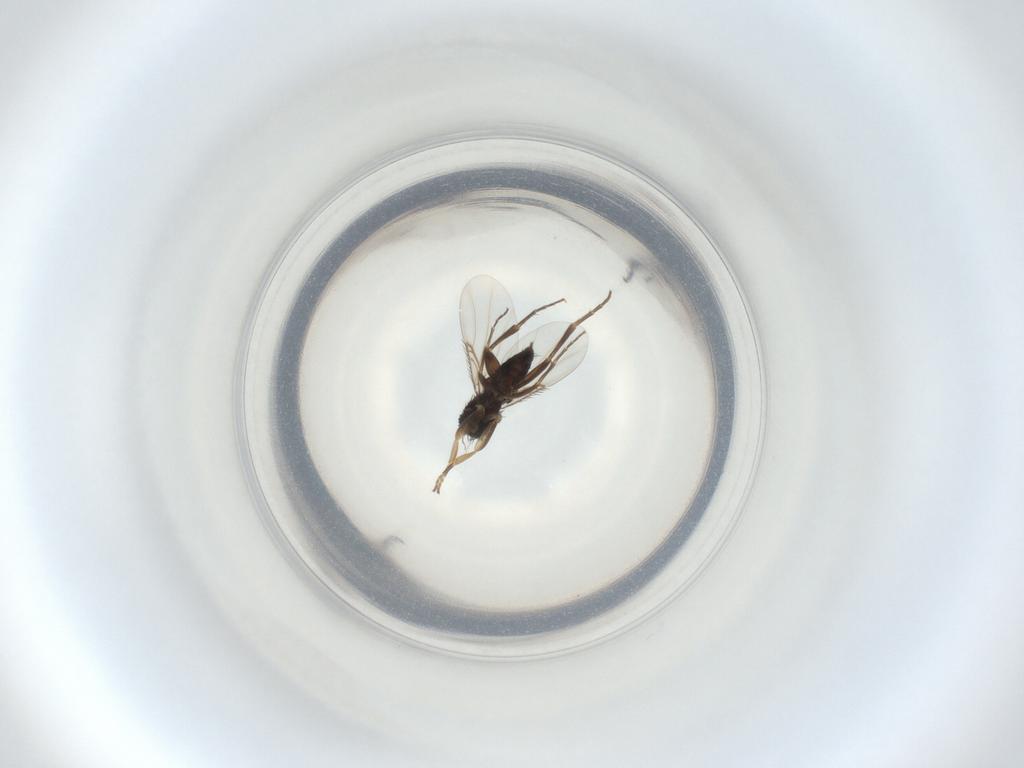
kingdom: Animalia
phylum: Arthropoda
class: Insecta
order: Diptera
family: Phoridae
